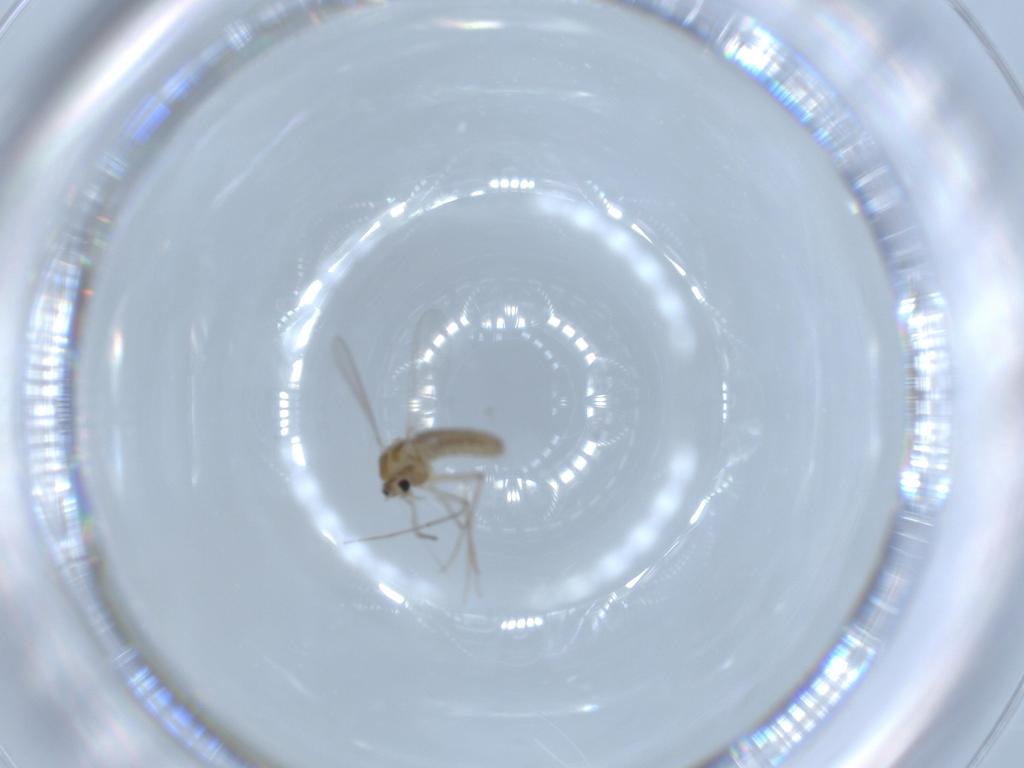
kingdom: Animalia
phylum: Arthropoda
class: Insecta
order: Diptera
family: Chironomidae
